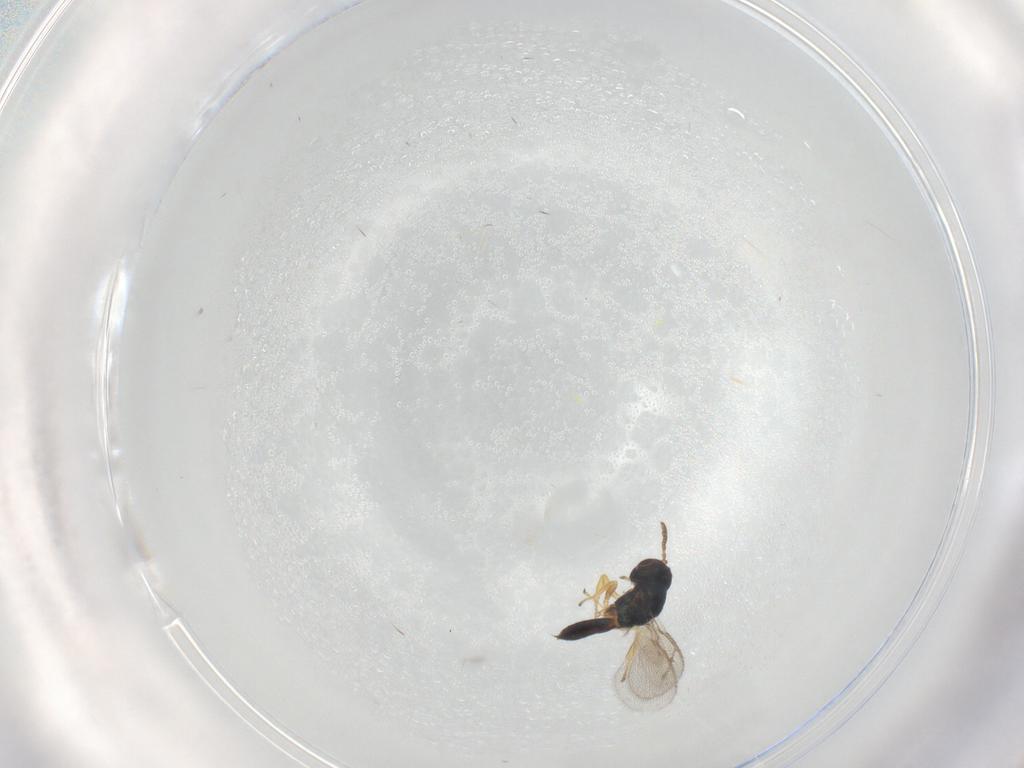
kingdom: Animalia
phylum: Arthropoda
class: Insecta
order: Hymenoptera
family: Pteromalidae
